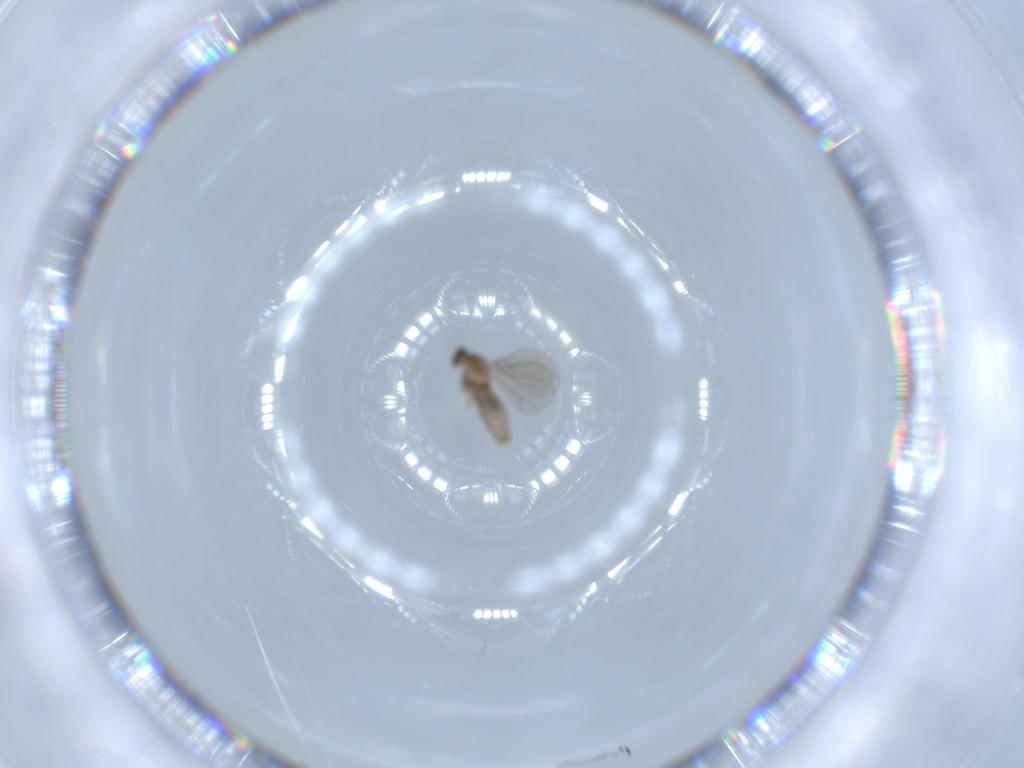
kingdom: Animalia
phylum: Arthropoda
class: Insecta
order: Diptera
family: Cecidomyiidae
